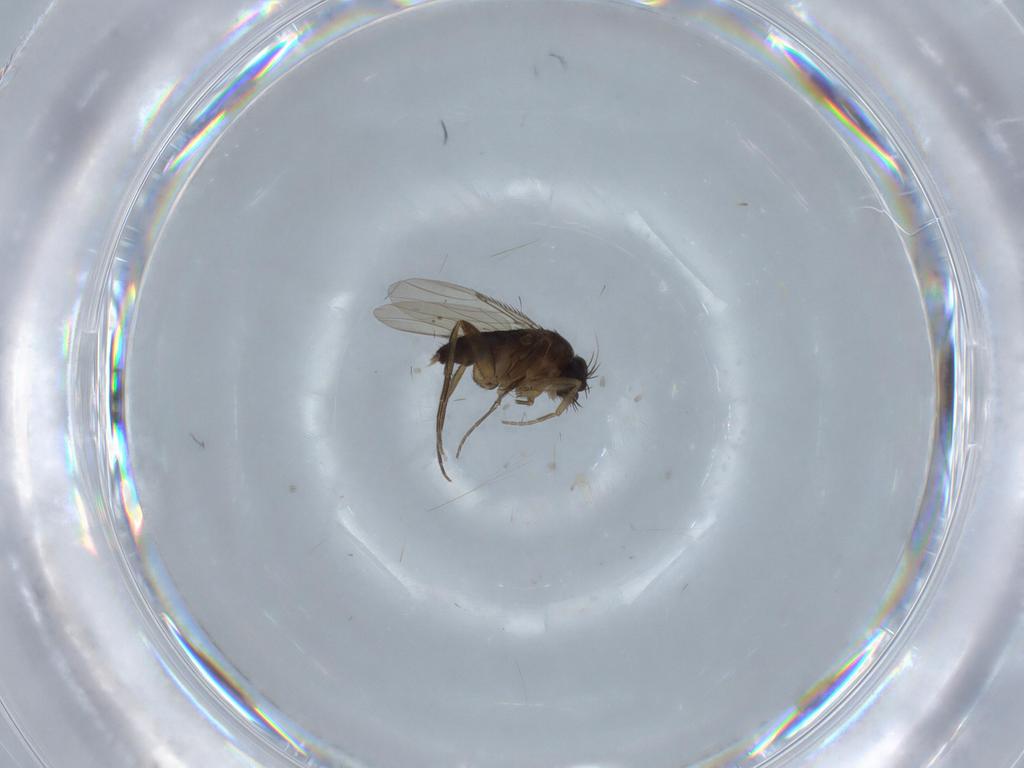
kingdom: Animalia
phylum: Arthropoda
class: Insecta
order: Diptera
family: Phoridae
